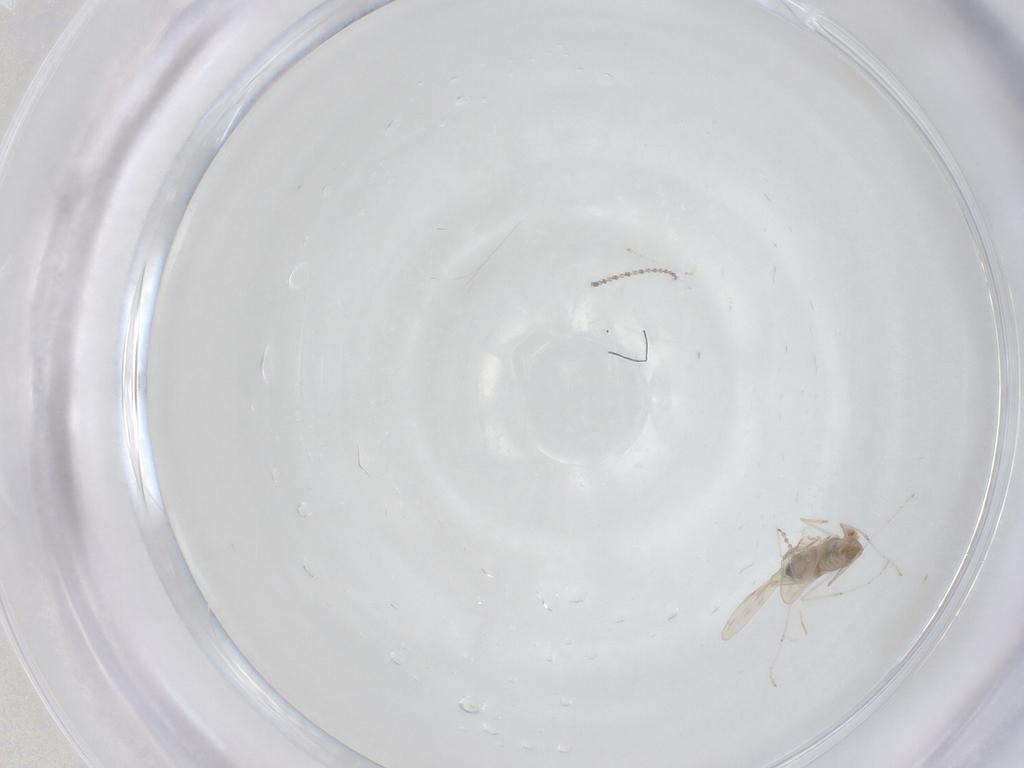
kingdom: Animalia
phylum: Arthropoda
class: Insecta
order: Diptera
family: Cecidomyiidae
